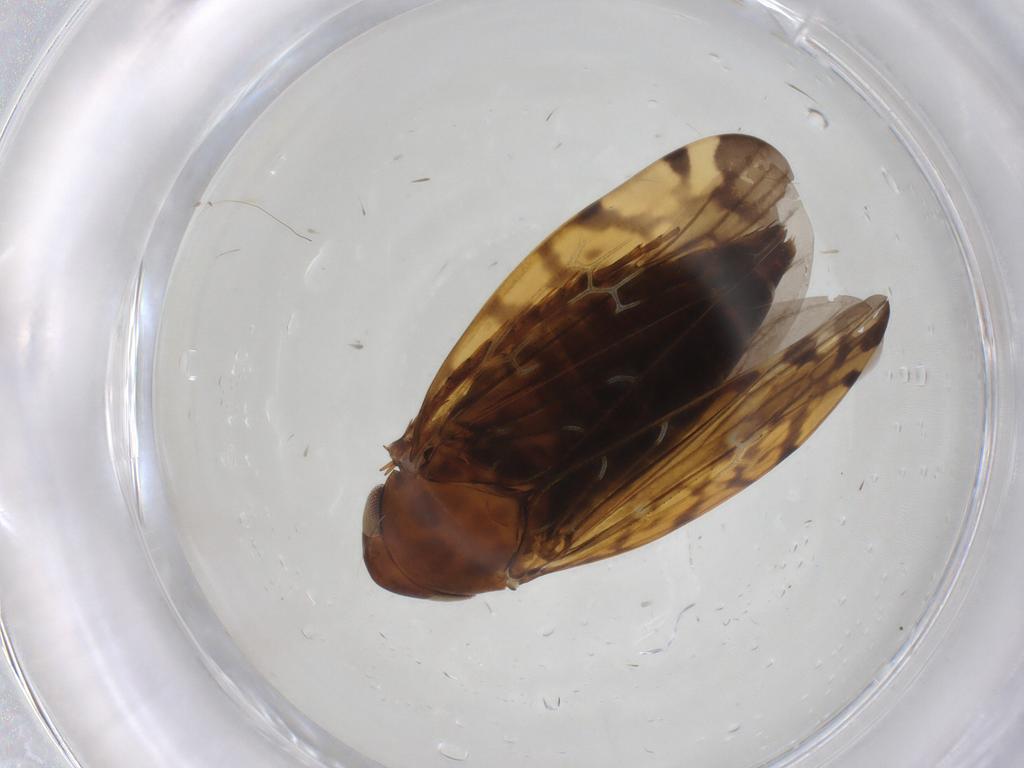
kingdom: Animalia
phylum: Arthropoda
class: Insecta
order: Hemiptera
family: Cicadellidae
